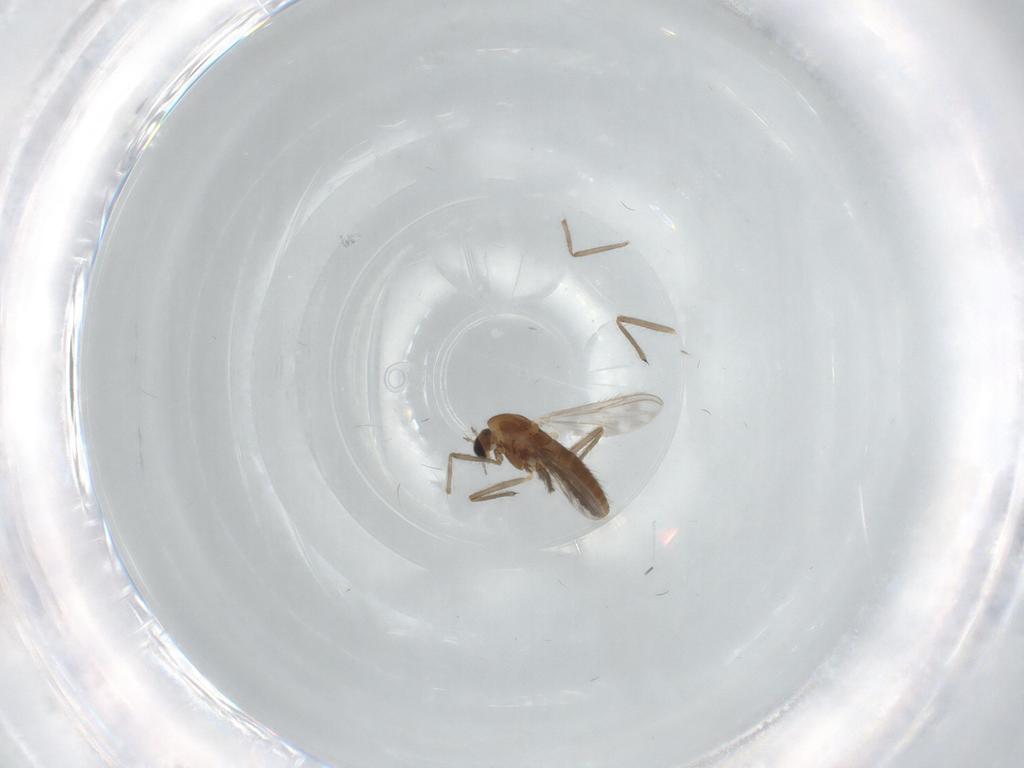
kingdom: Animalia
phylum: Arthropoda
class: Insecta
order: Diptera
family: Chironomidae
